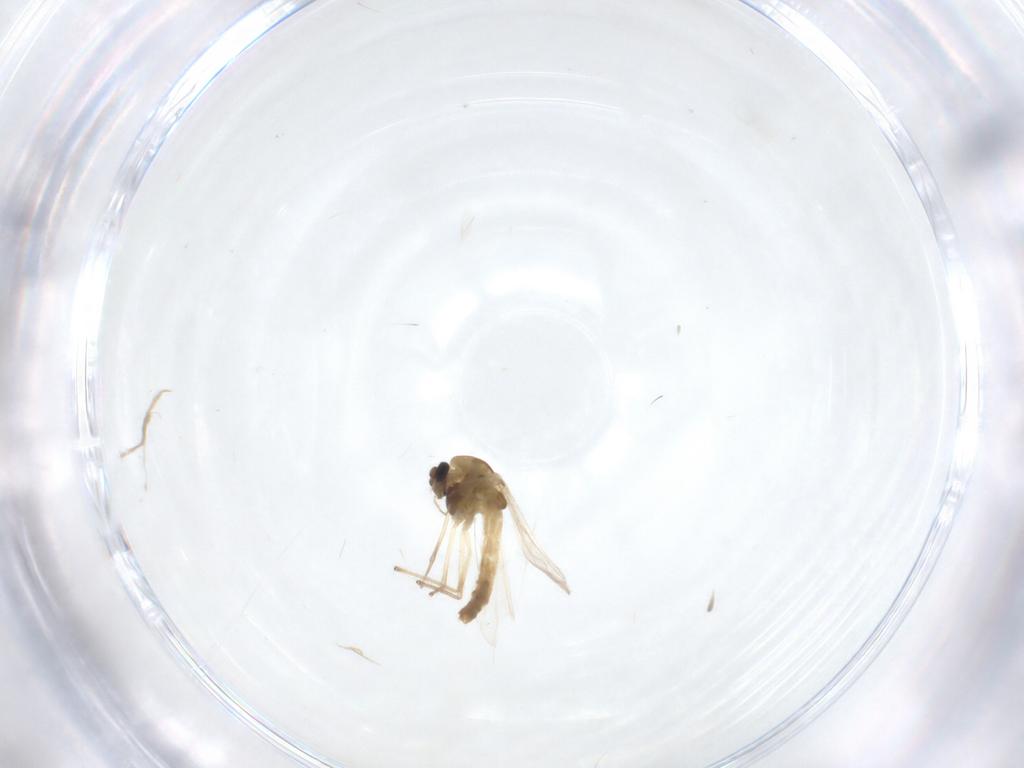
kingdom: Animalia
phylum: Arthropoda
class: Insecta
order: Diptera
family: Chironomidae
